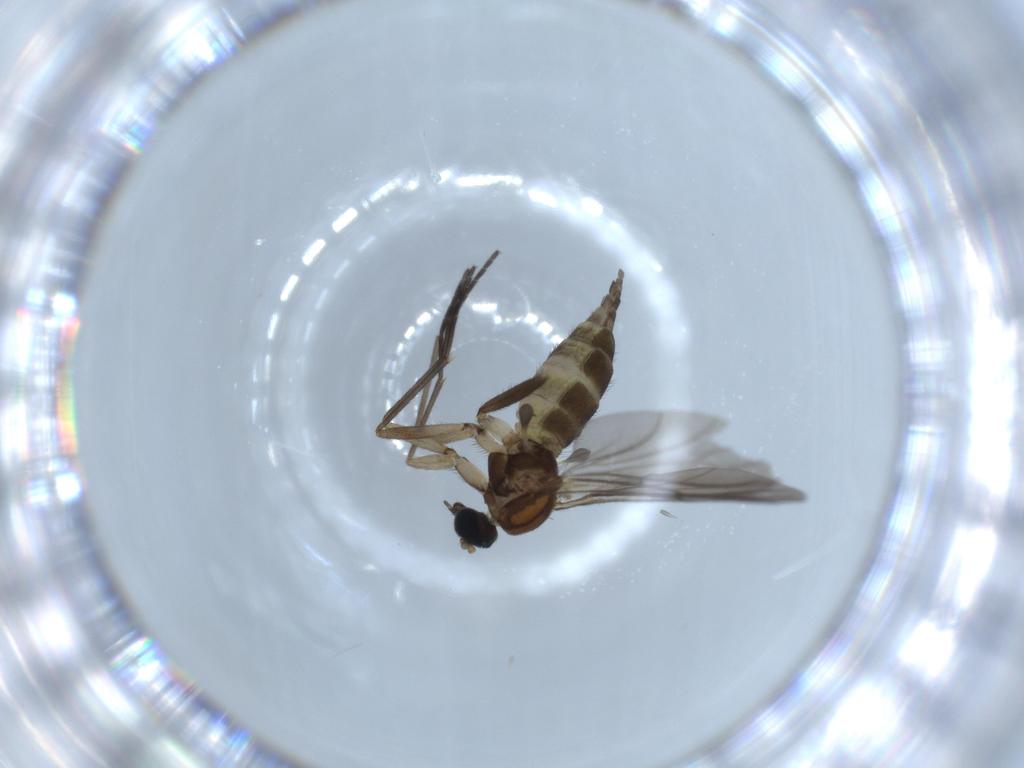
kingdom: Animalia
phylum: Arthropoda
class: Insecta
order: Diptera
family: Sciaridae
